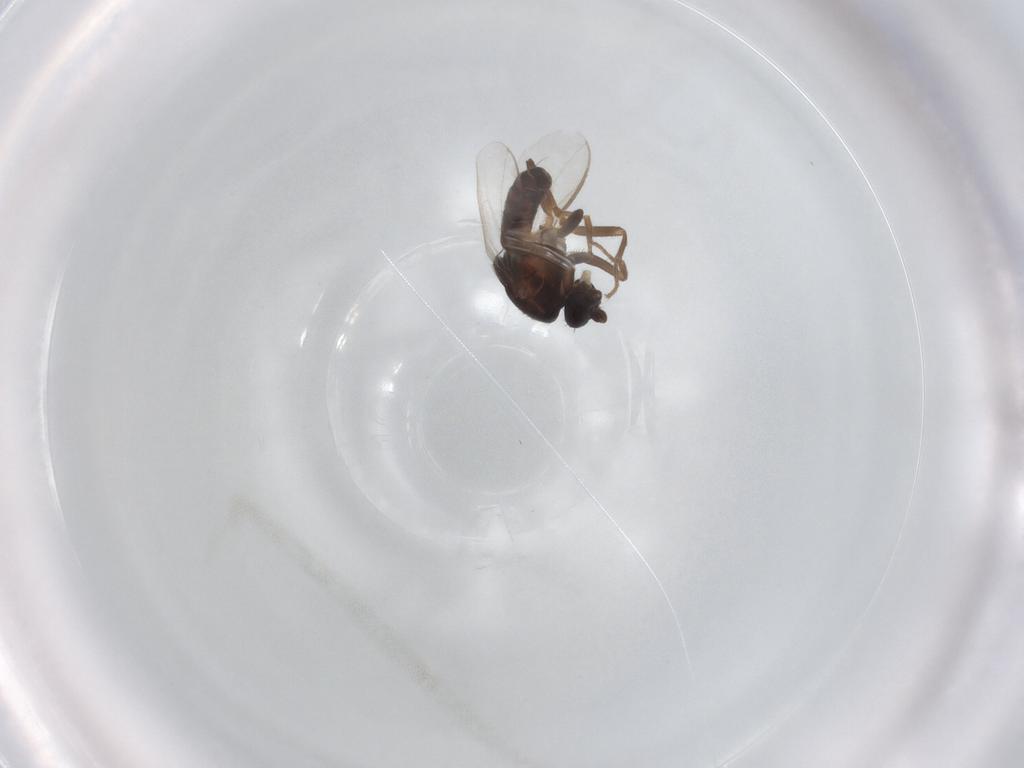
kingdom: Animalia
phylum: Arthropoda
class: Insecta
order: Diptera
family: Sphaeroceridae
